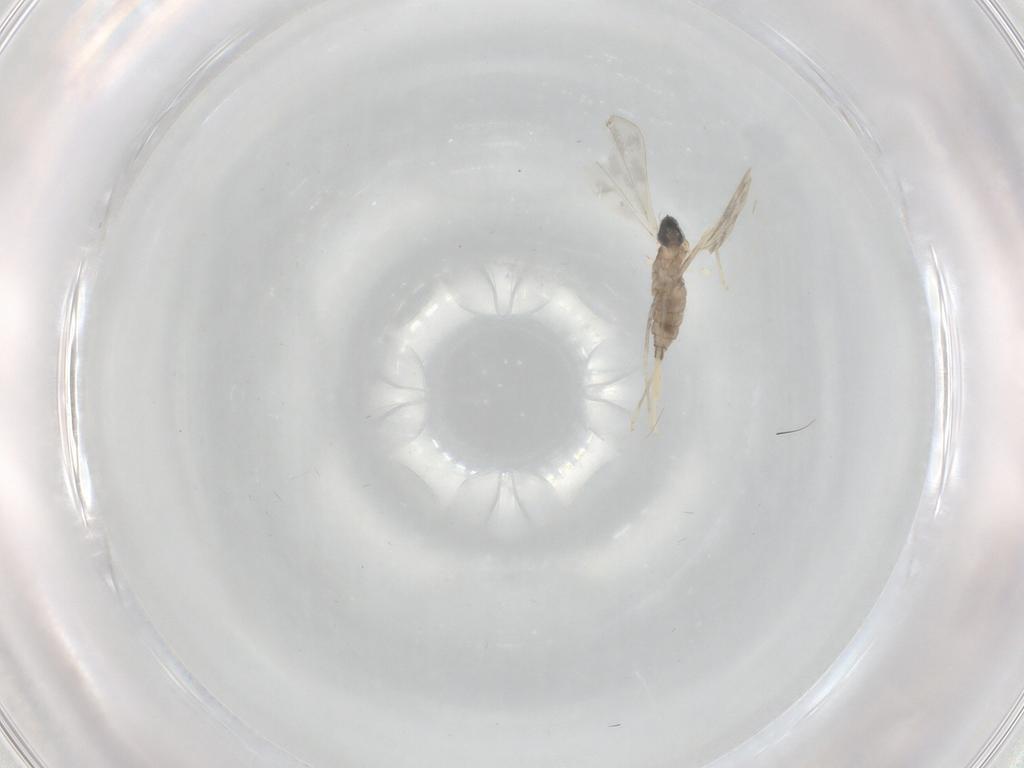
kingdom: Animalia
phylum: Arthropoda
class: Insecta
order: Diptera
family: Cecidomyiidae
